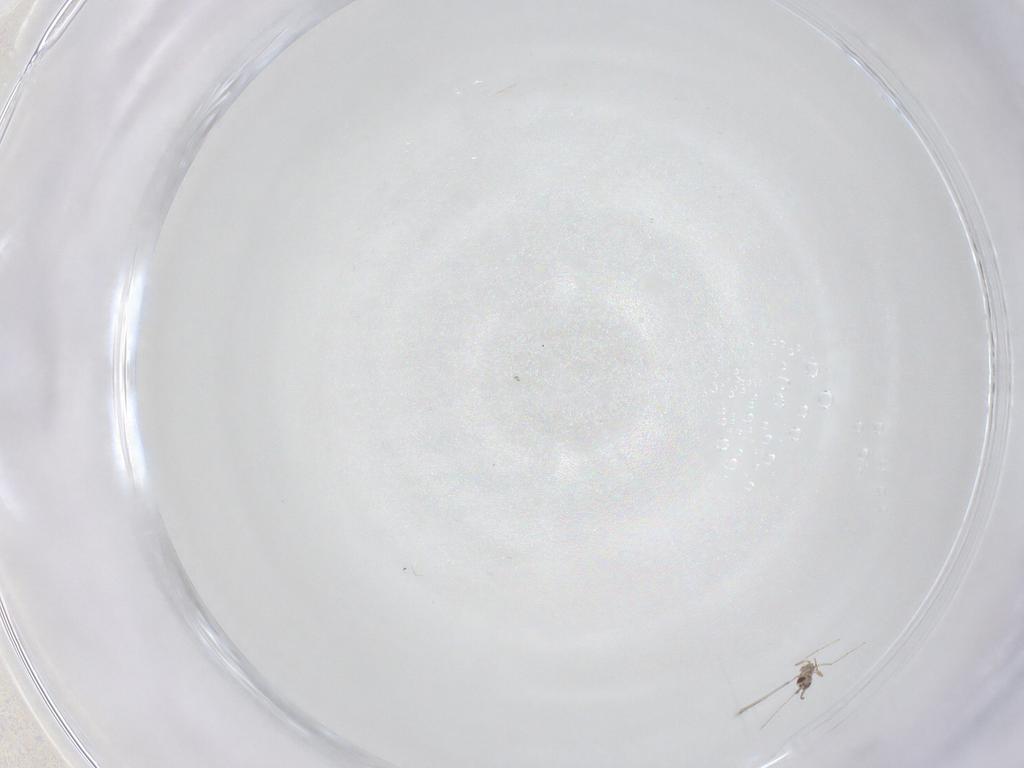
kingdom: Animalia
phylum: Arthropoda
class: Insecta
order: Hymenoptera
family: Mymaridae
